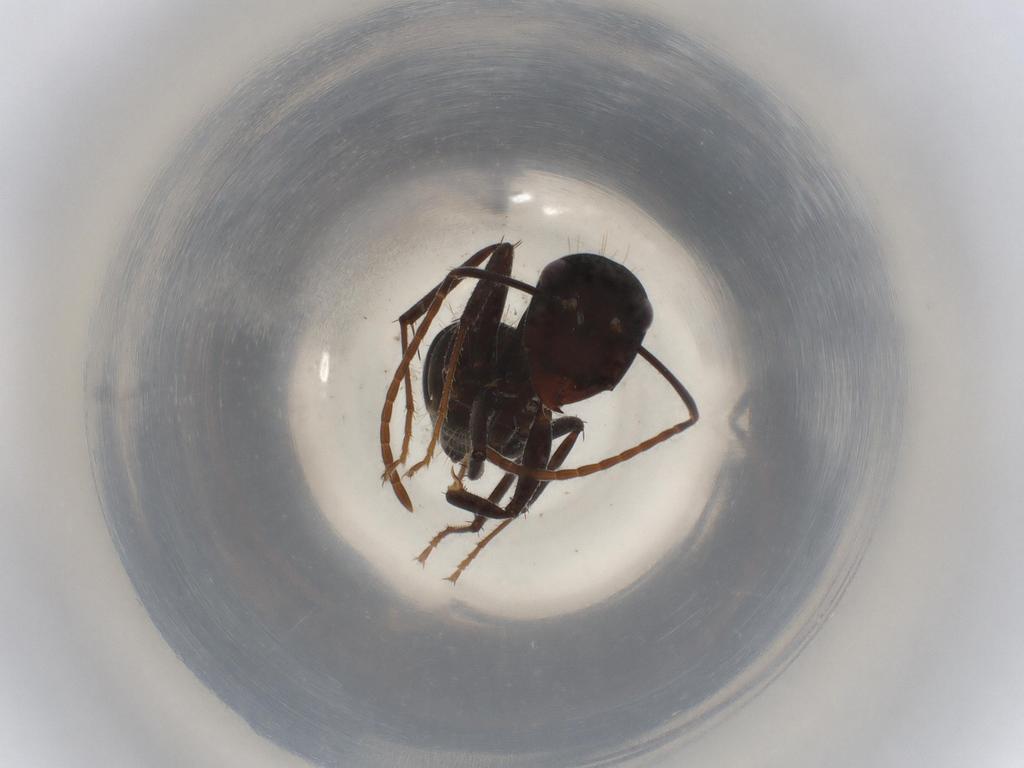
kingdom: Animalia
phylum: Arthropoda
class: Insecta
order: Hymenoptera
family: Formicidae
